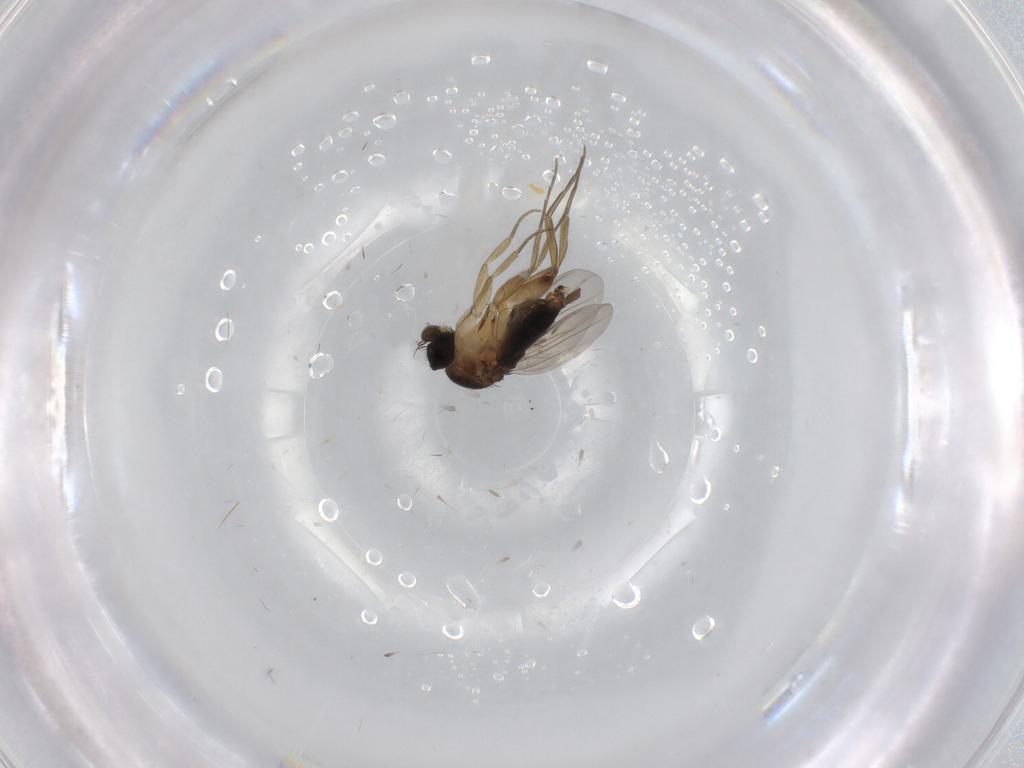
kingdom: Animalia
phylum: Arthropoda
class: Insecta
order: Diptera
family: Phoridae
